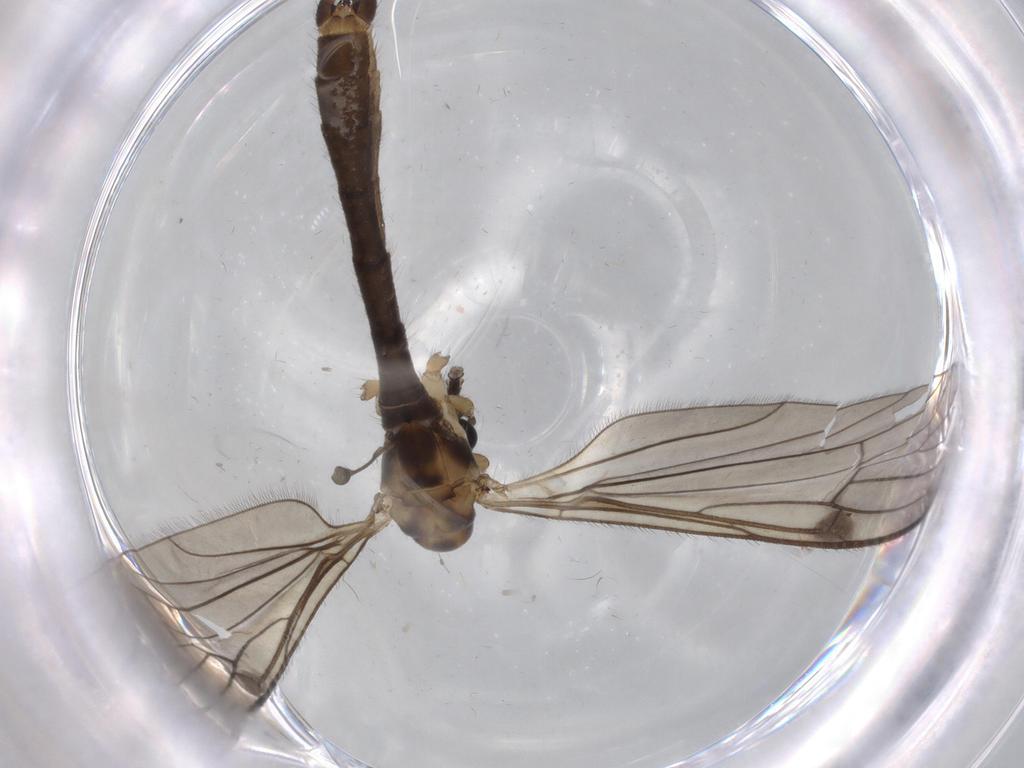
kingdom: Animalia
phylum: Arthropoda
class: Insecta
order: Diptera
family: Limoniidae
